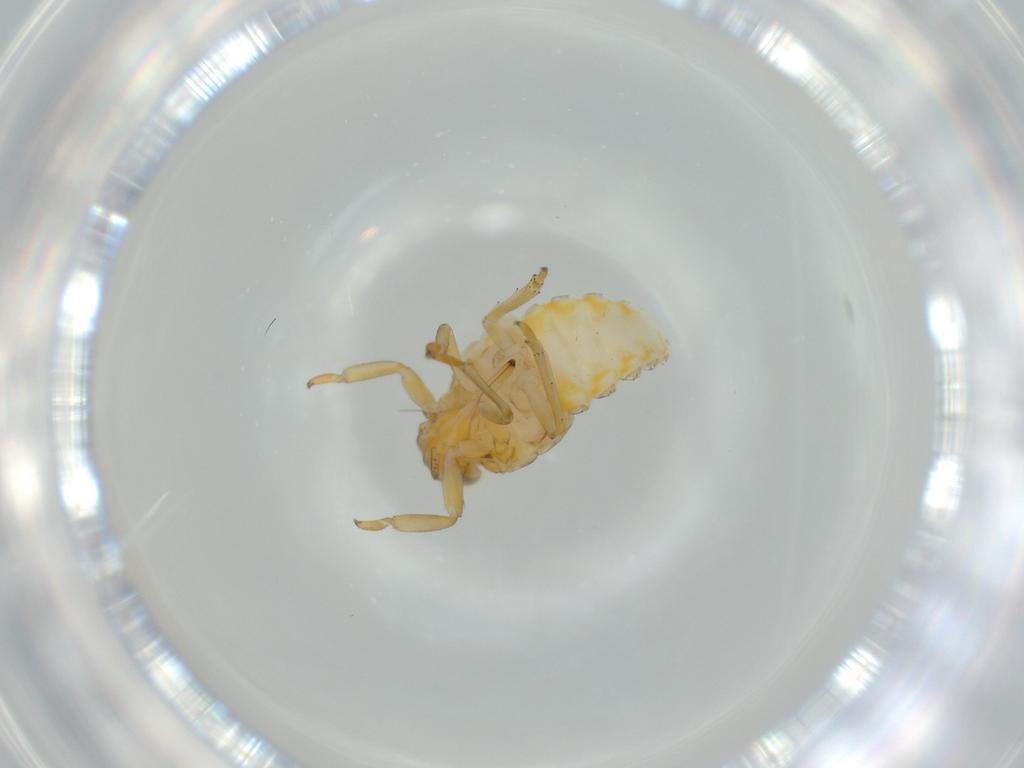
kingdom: Animalia
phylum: Arthropoda
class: Insecta
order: Hemiptera
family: Issidae
